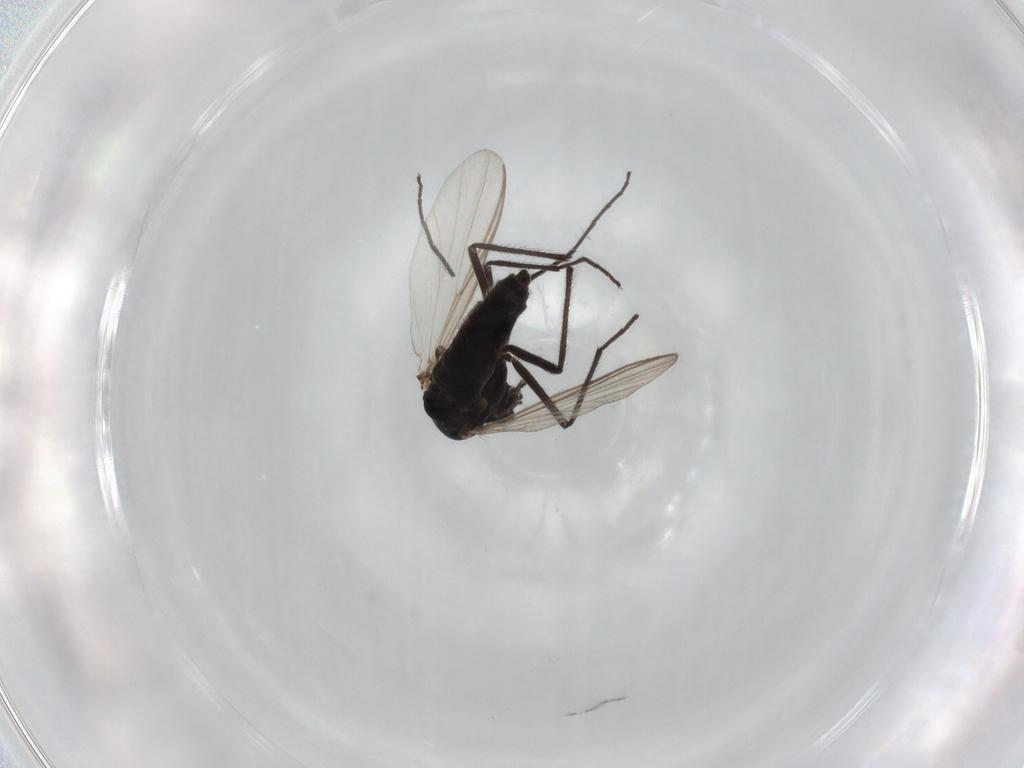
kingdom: Animalia
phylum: Arthropoda
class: Insecta
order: Diptera
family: Chironomidae
